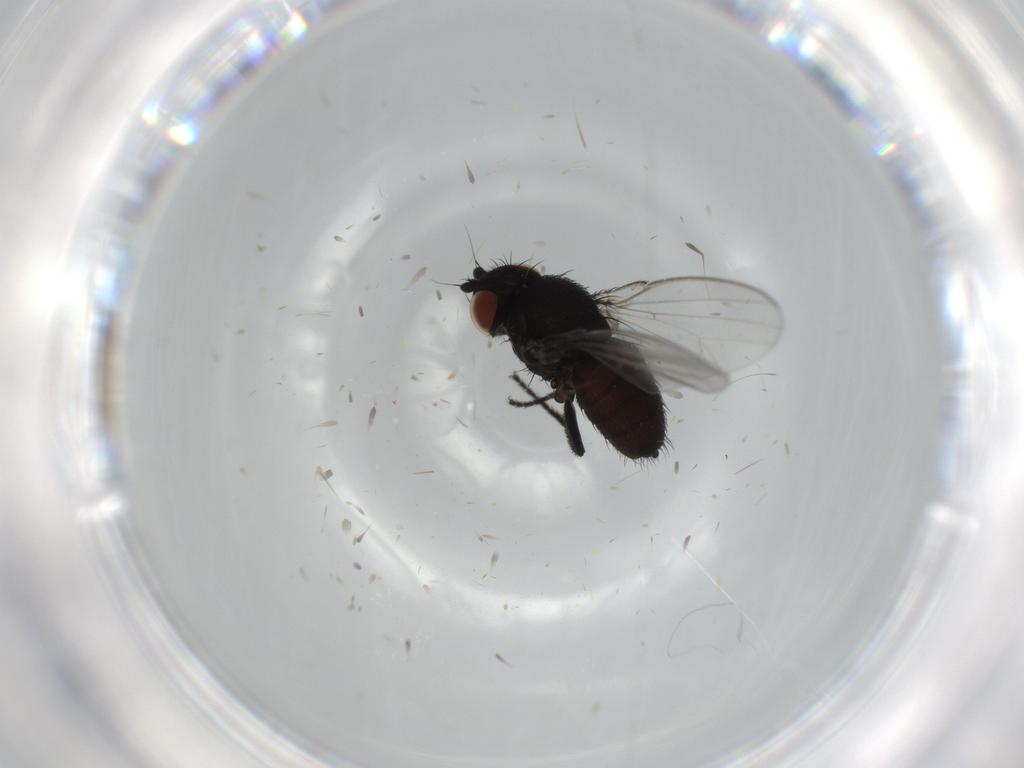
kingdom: Animalia
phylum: Arthropoda
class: Insecta
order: Diptera
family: Milichiidae
